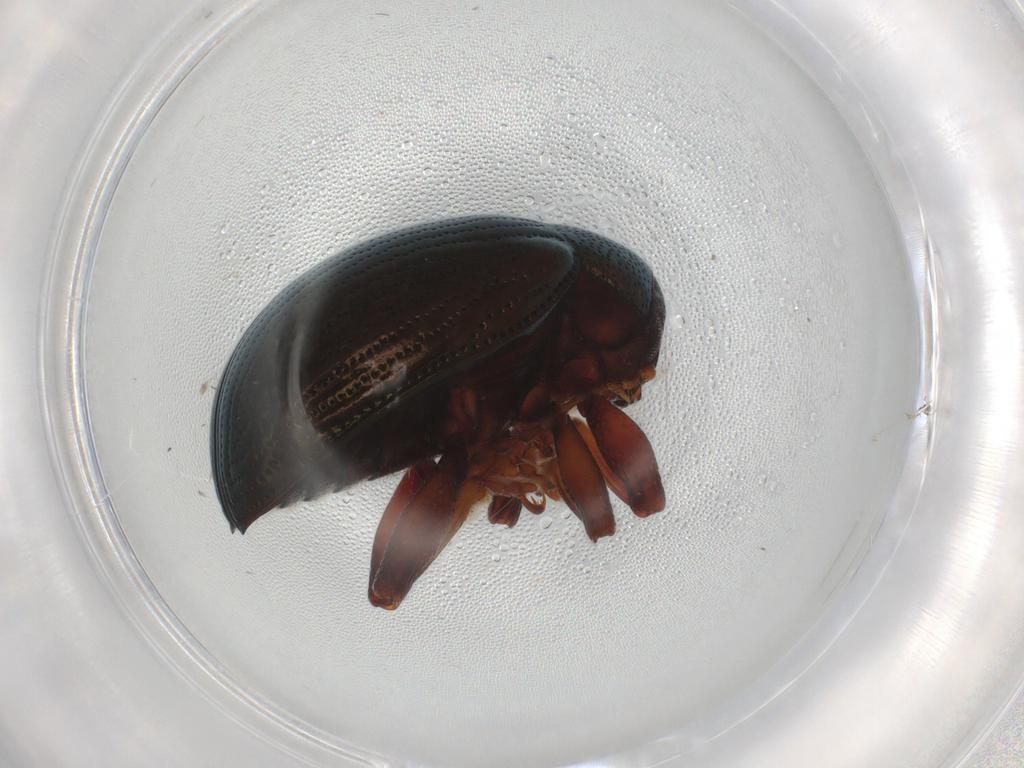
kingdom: Animalia
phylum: Arthropoda
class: Insecta
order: Coleoptera
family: Chrysomelidae
